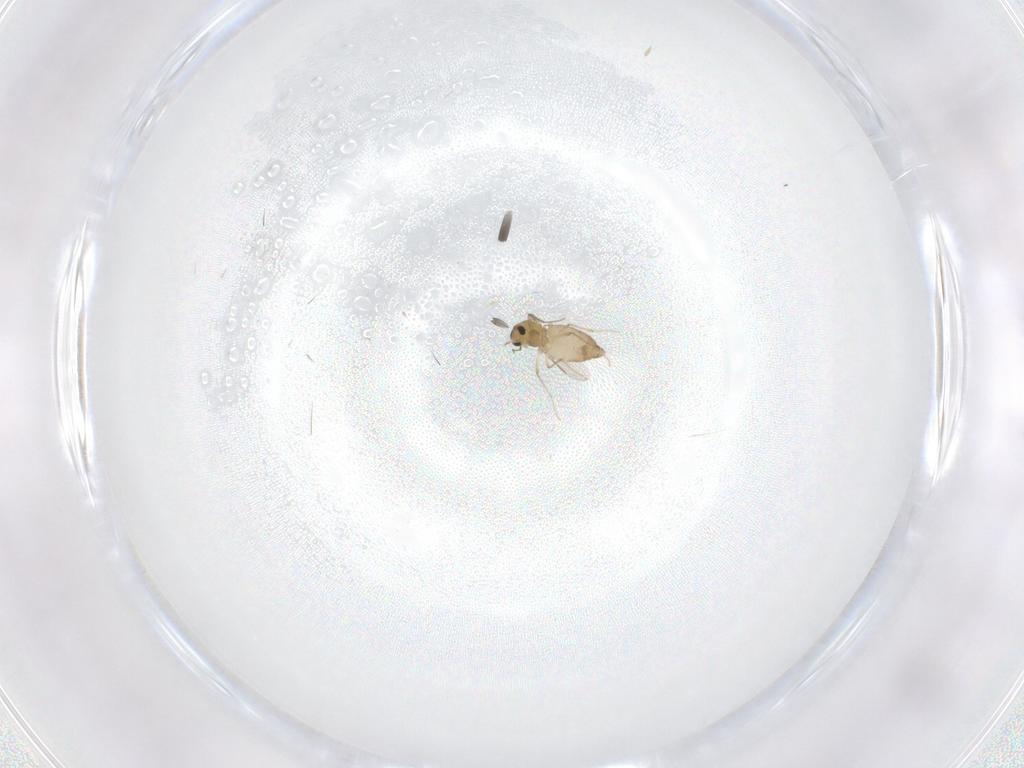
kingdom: Animalia
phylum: Arthropoda
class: Insecta
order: Diptera
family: Chironomidae
